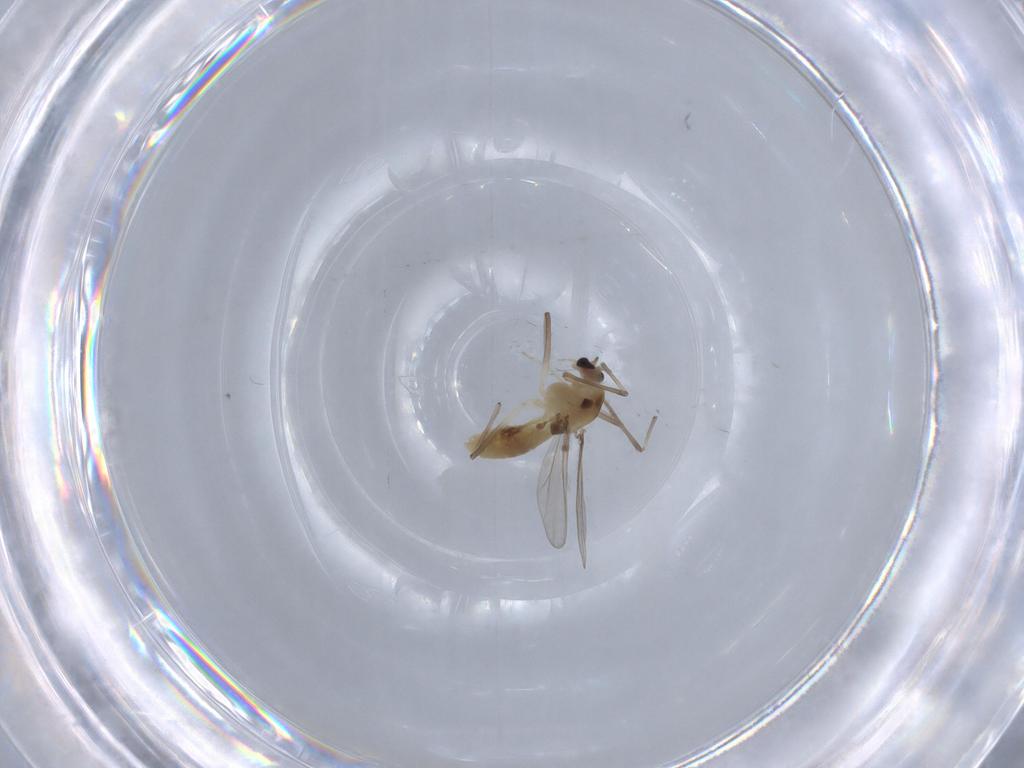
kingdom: Animalia
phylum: Arthropoda
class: Insecta
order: Diptera
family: Chironomidae
